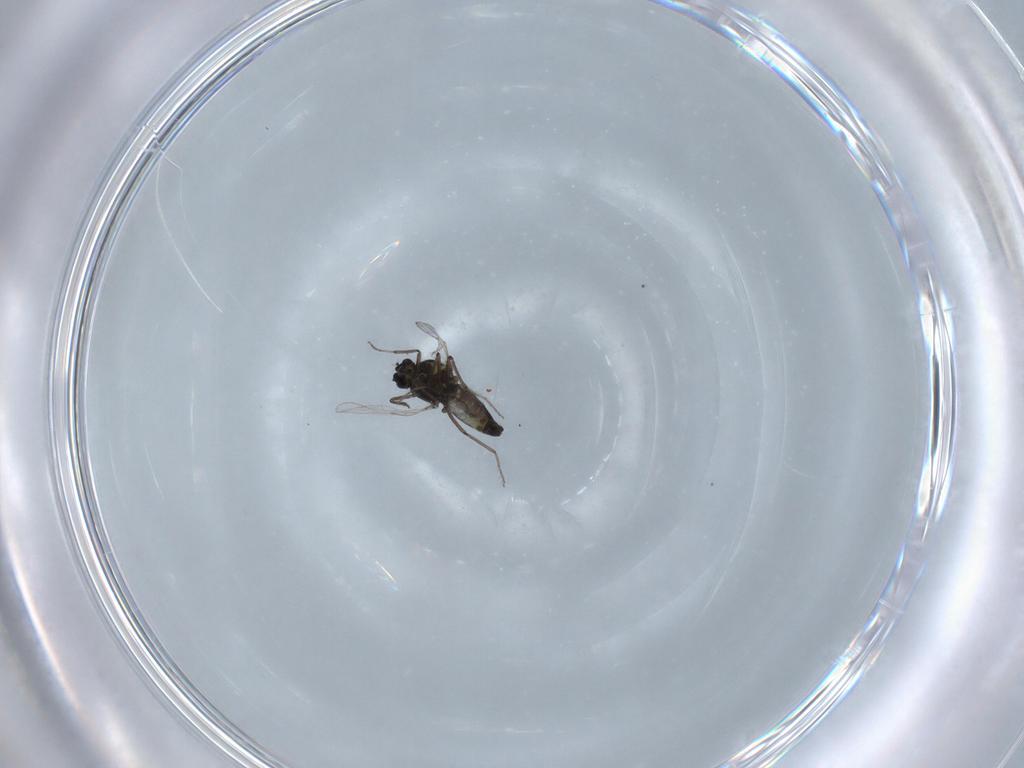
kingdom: Animalia
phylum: Arthropoda
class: Insecta
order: Diptera
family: Ceratopogonidae
